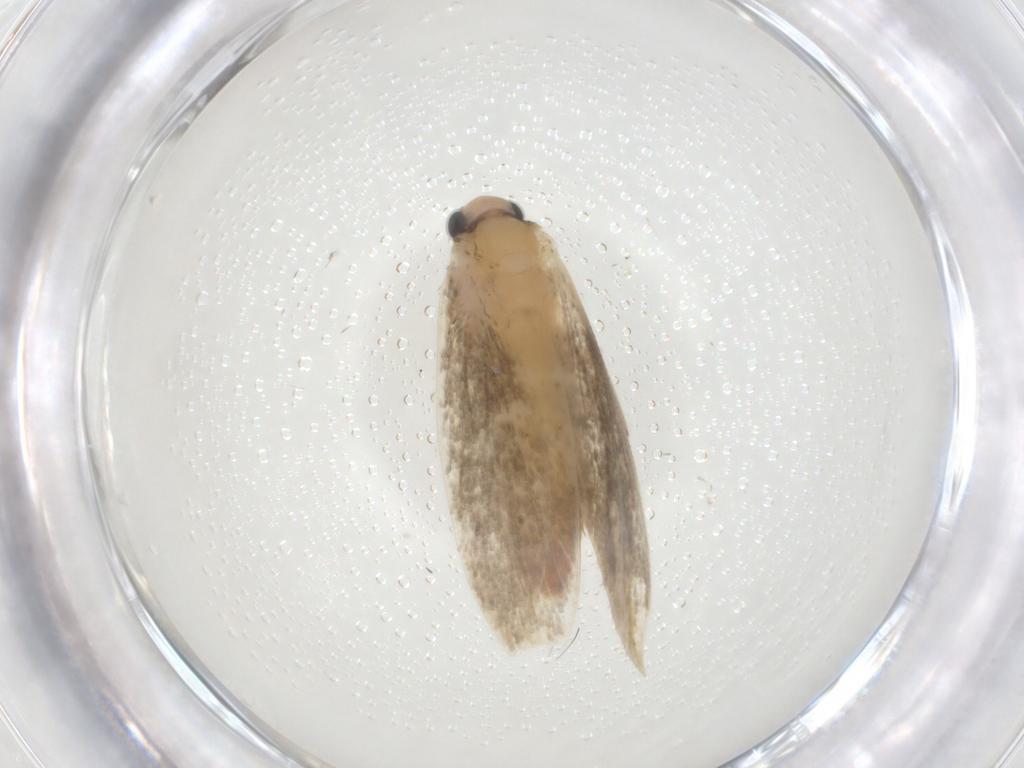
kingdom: Animalia
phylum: Arthropoda
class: Insecta
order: Lepidoptera
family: Tineidae
